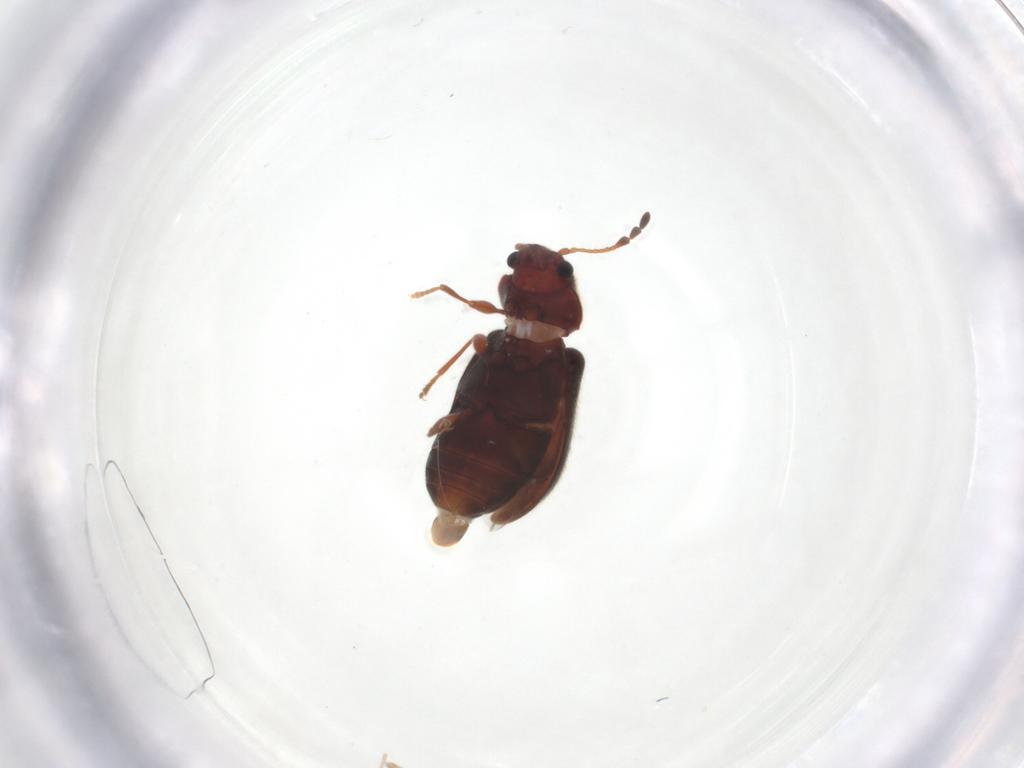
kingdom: Animalia
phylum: Arthropoda
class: Insecta
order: Coleoptera
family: Ptinidae
